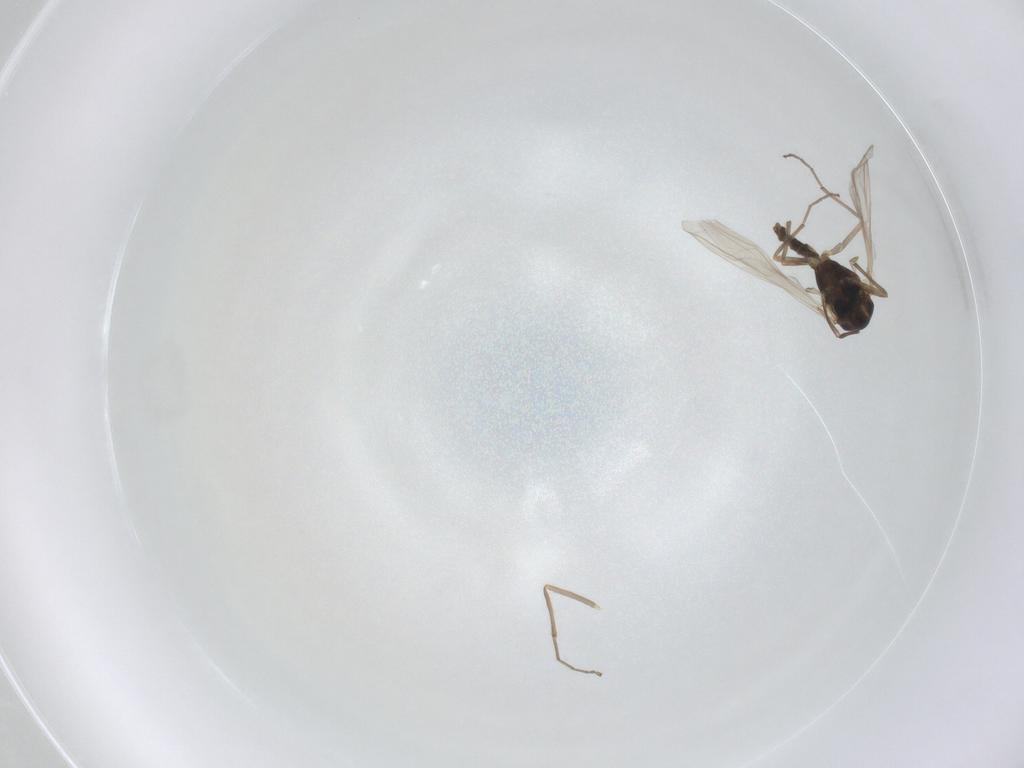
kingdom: Animalia
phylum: Arthropoda
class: Insecta
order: Diptera
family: Chironomidae
